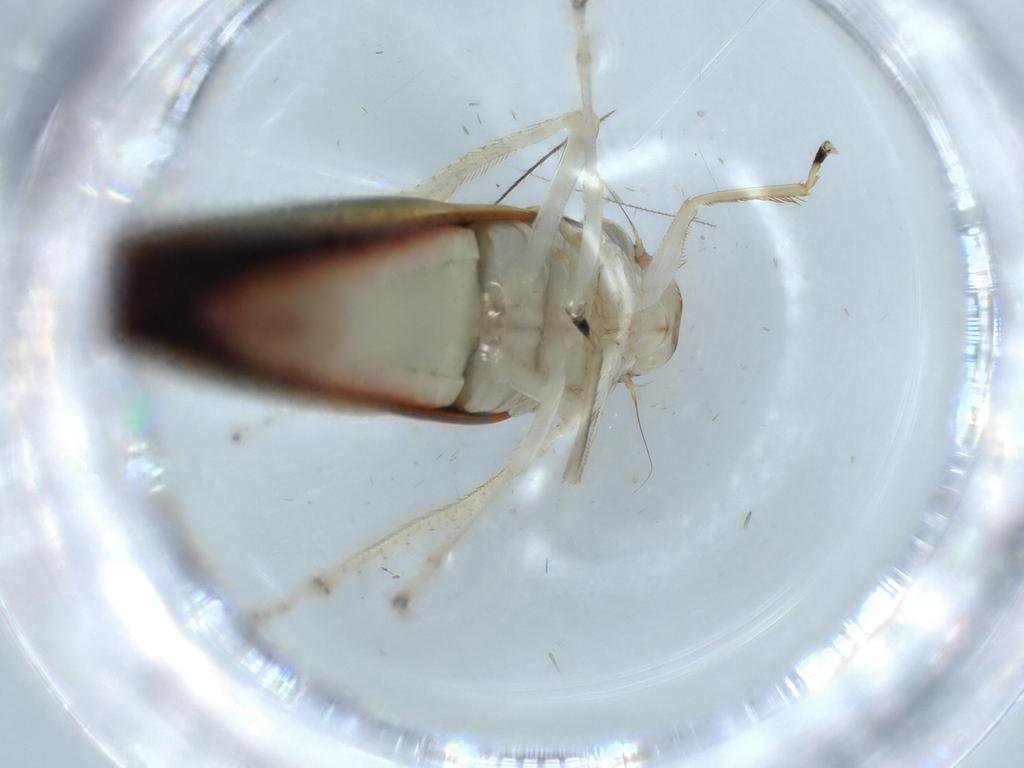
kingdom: Animalia
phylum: Arthropoda
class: Insecta
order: Hemiptera
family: Cicadellidae
